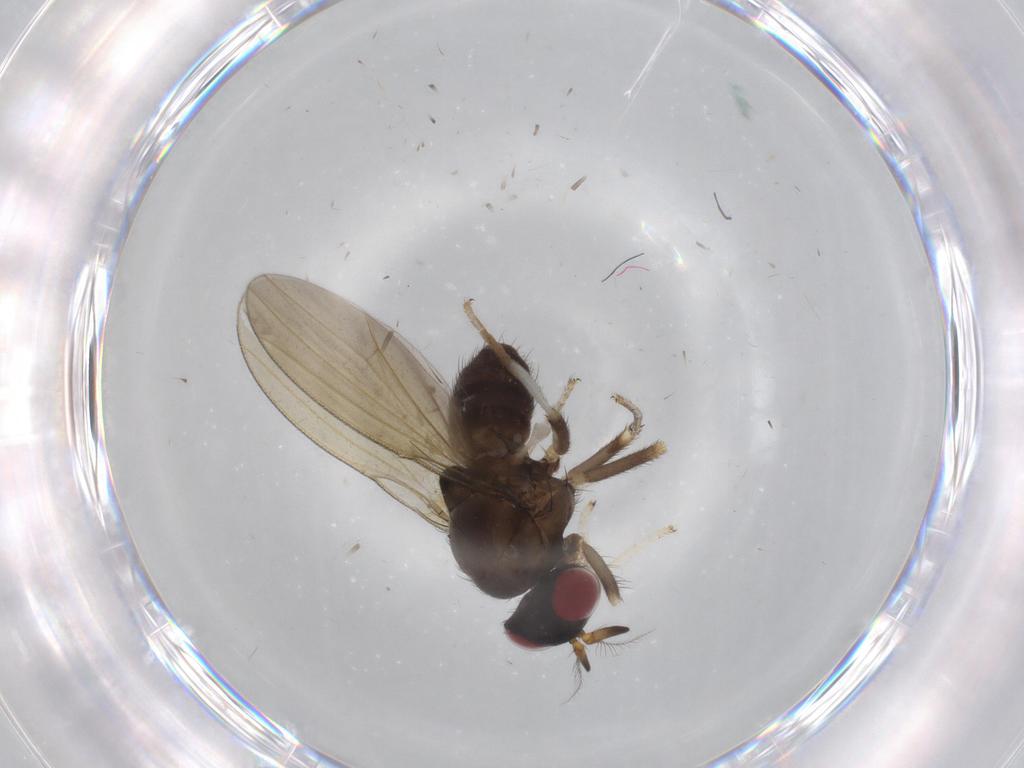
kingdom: Animalia
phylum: Arthropoda
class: Insecta
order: Diptera
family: Lauxaniidae
